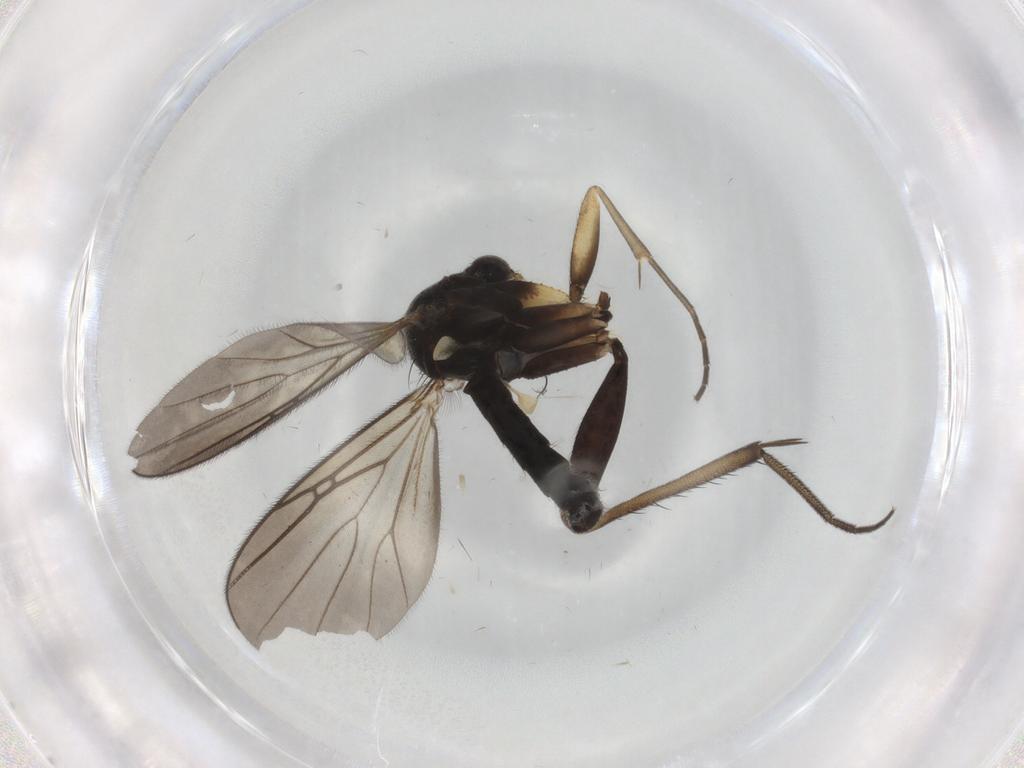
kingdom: Animalia
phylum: Arthropoda
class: Insecta
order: Diptera
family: Mycetophilidae
